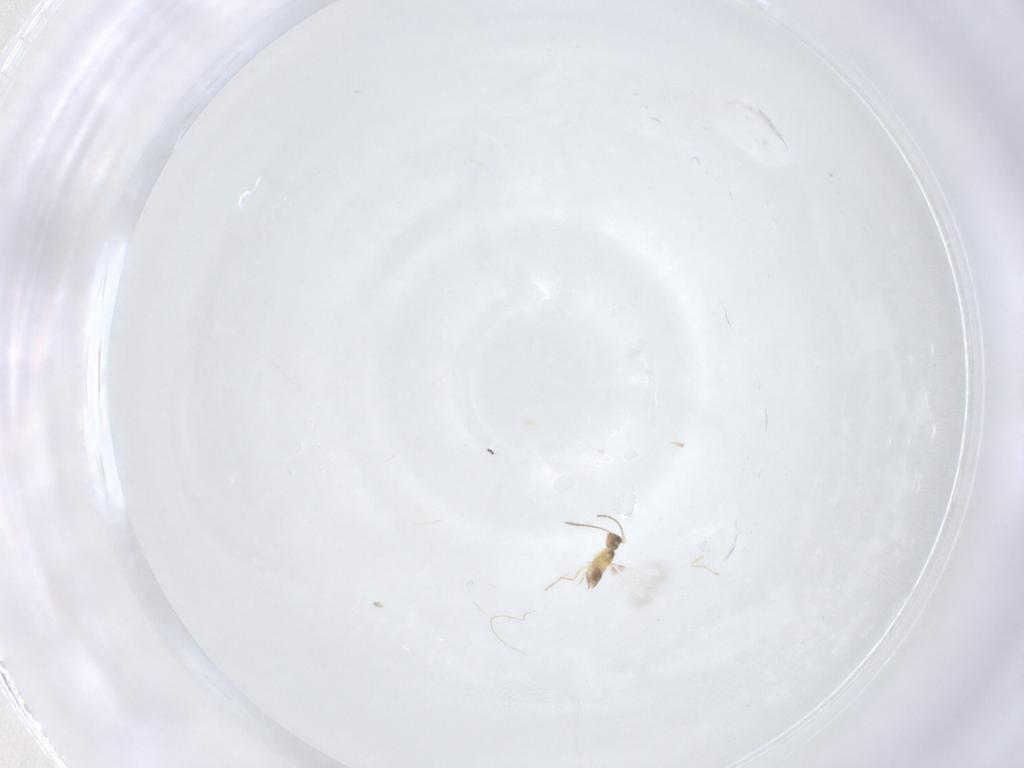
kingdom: Animalia
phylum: Arthropoda
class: Insecta
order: Hymenoptera
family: Mymaridae
